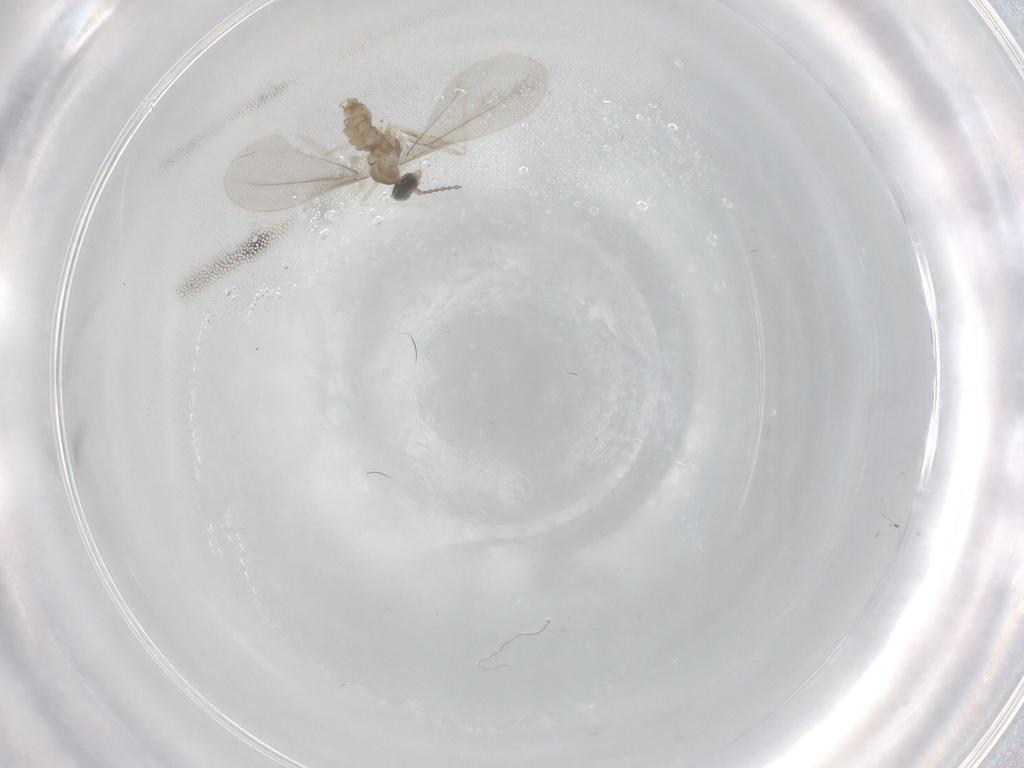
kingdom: Animalia
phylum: Arthropoda
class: Insecta
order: Diptera
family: Cecidomyiidae
